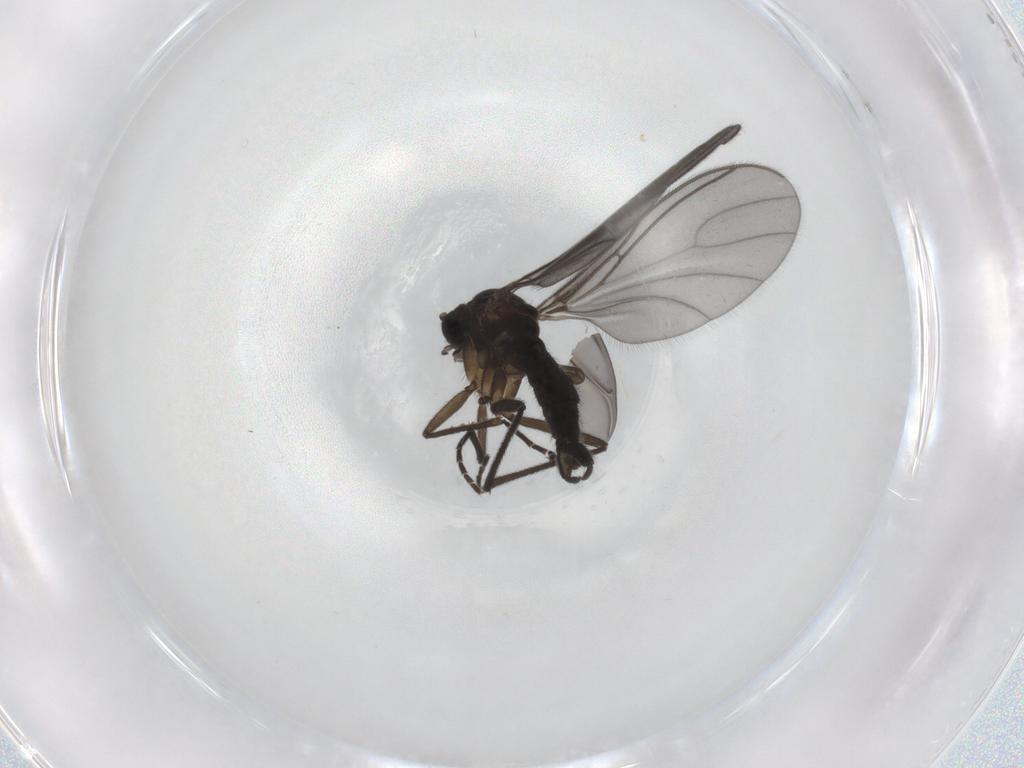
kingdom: Animalia
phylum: Arthropoda
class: Insecta
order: Diptera
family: Sciaridae
